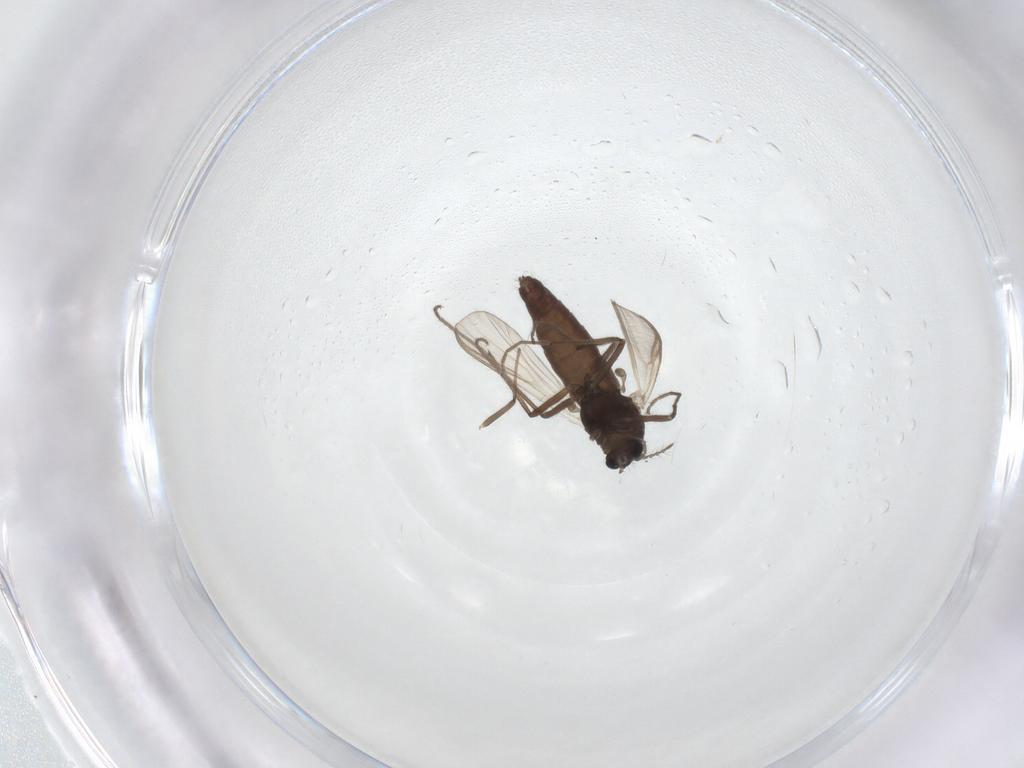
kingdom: Animalia
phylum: Arthropoda
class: Insecta
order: Diptera
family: Chironomidae
